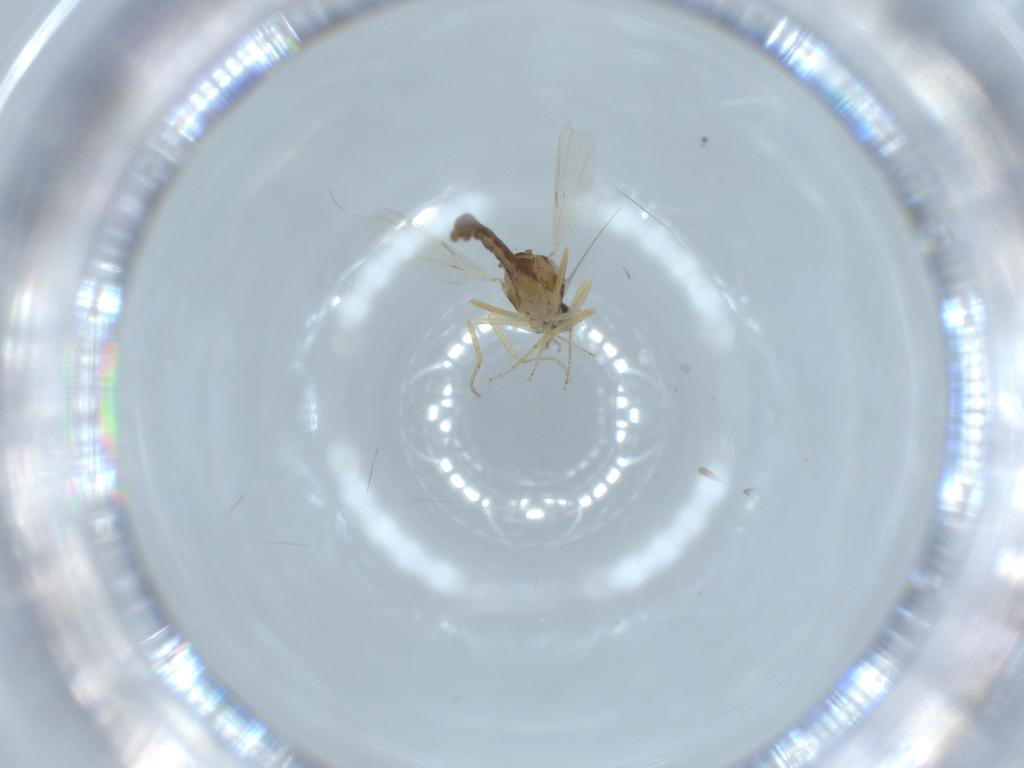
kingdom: Animalia
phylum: Arthropoda
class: Insecta
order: Diptera
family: Ceratopogonidae
